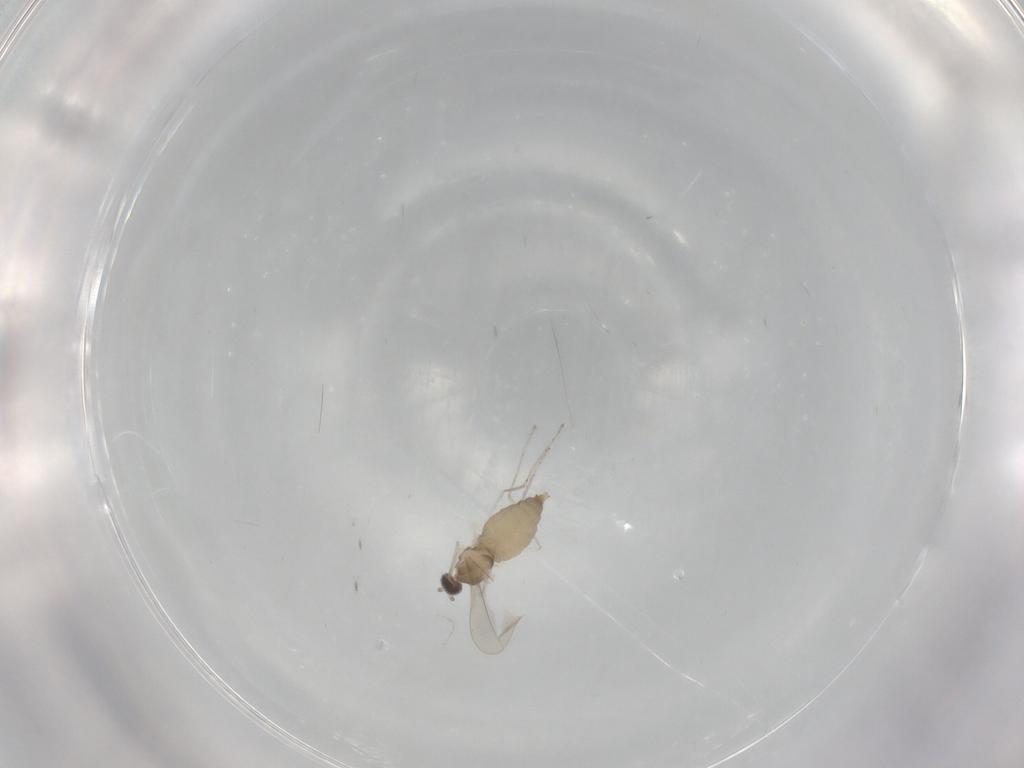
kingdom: Animalia
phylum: Arthropoda
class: Insecta
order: Diptera
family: Cecidomyiidae
